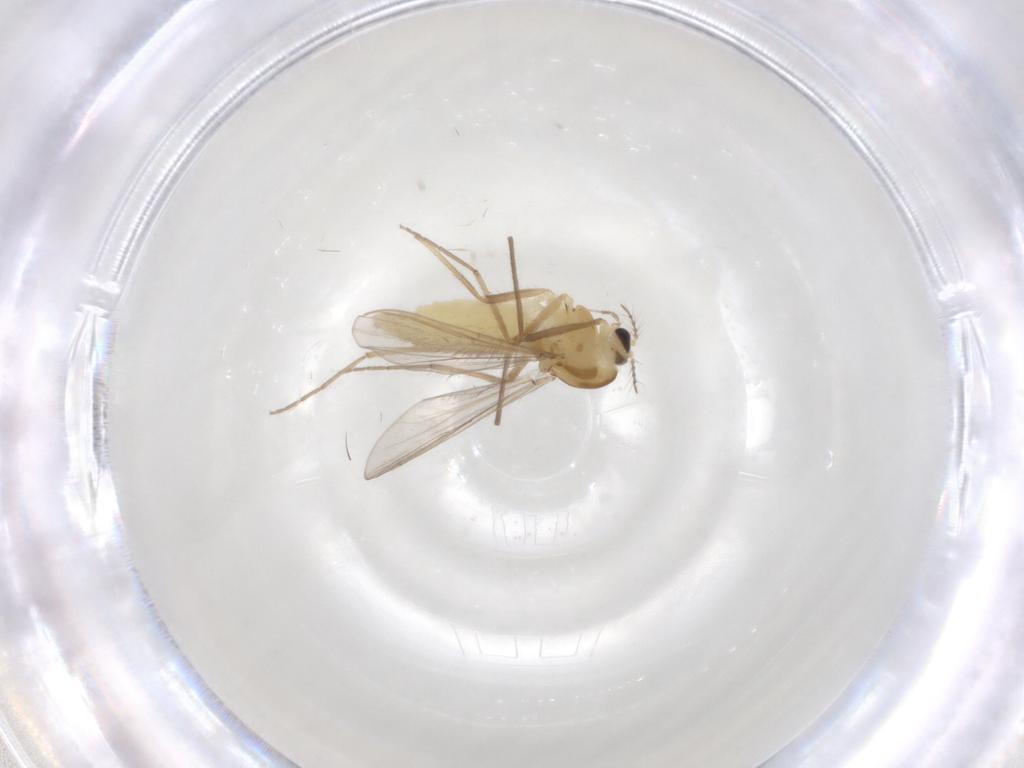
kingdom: Animalia
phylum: Arthropoda
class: Insecta
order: Diptera
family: Chironomidae
